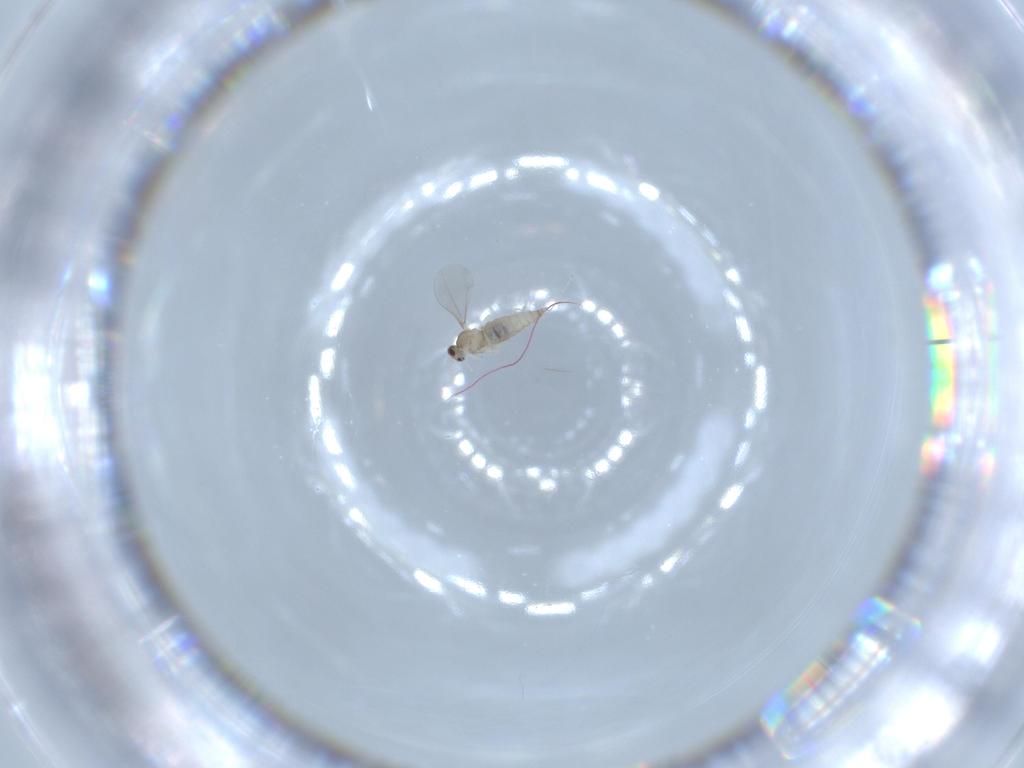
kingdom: Animalia
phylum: Arthropoda
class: Insecta
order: Diptera
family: Cecidomyiidae
